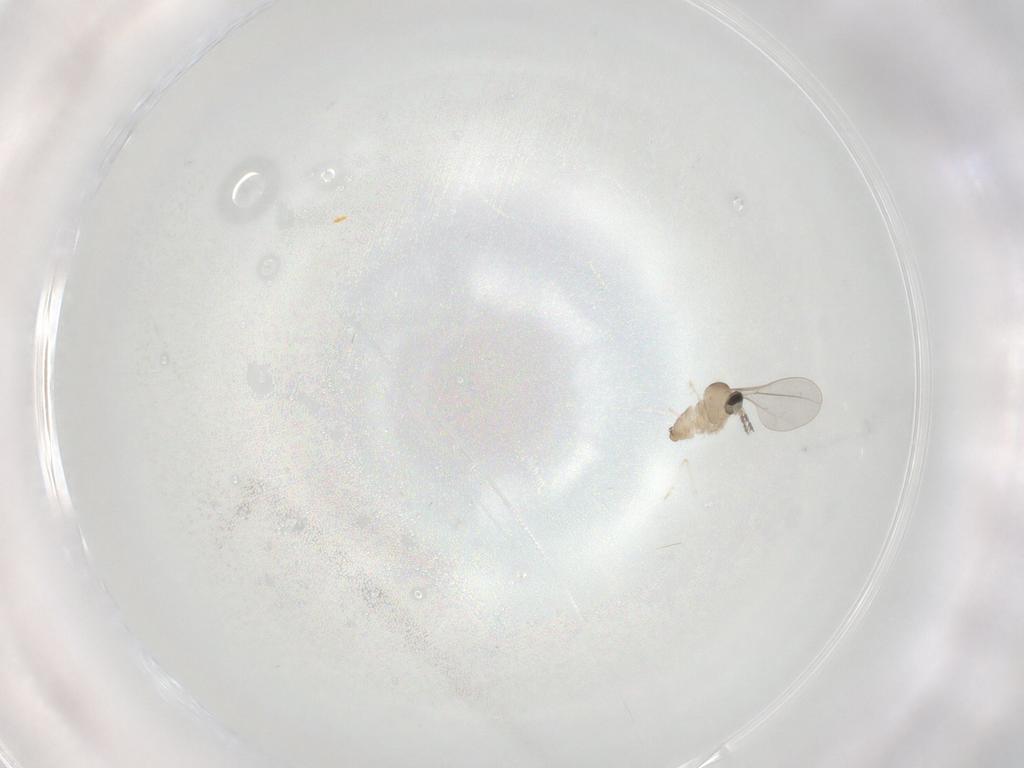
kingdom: Animalia
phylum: Arthropoda
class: Insecta
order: Diptera
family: Cecidomyiidae
